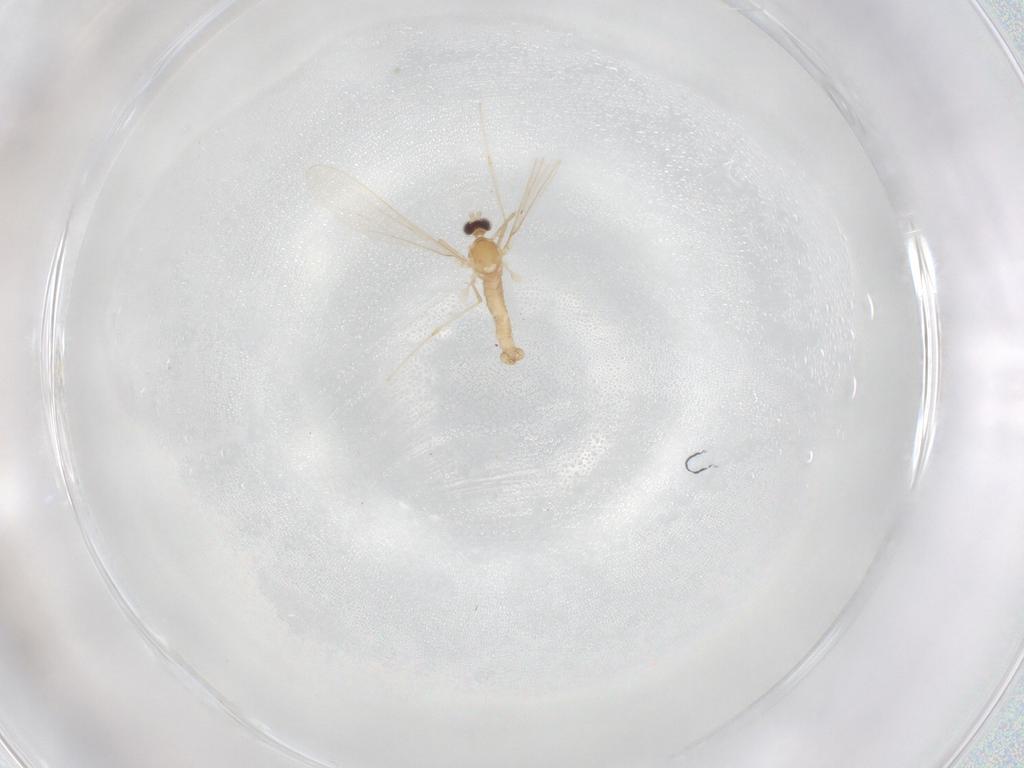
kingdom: Animalia
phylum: Arthropoda
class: Insecta
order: Diptera
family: Cecidomyiidae
